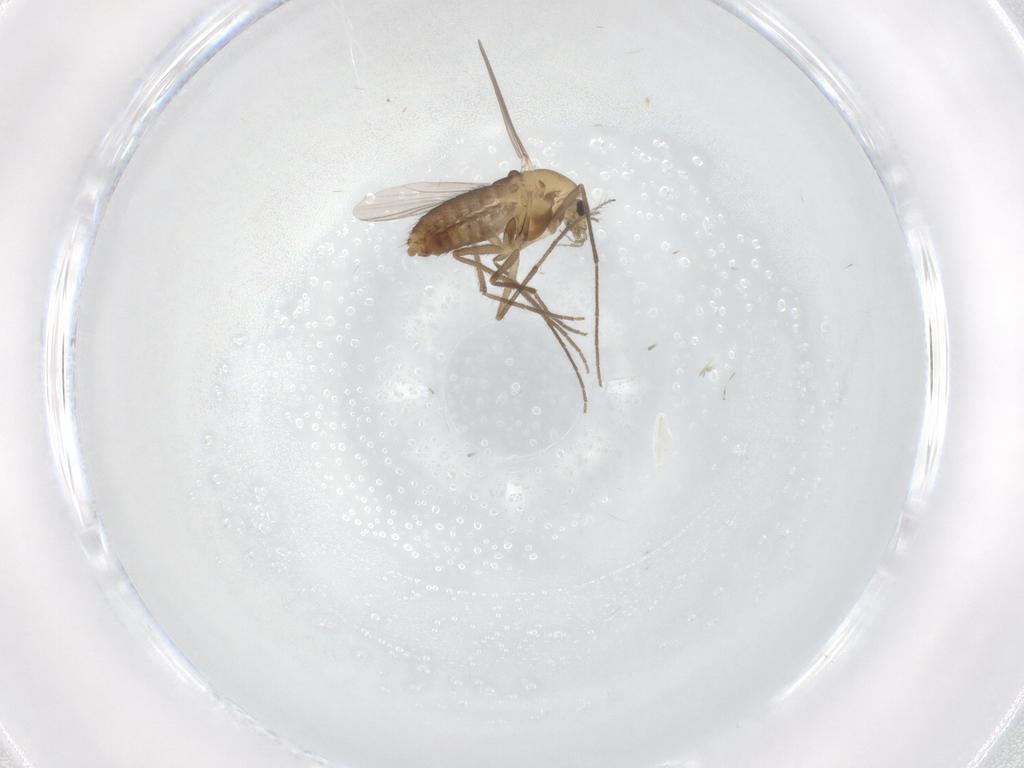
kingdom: Animalia
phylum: Arthropoda
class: Insecta
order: Diptera
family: Chironomidae
